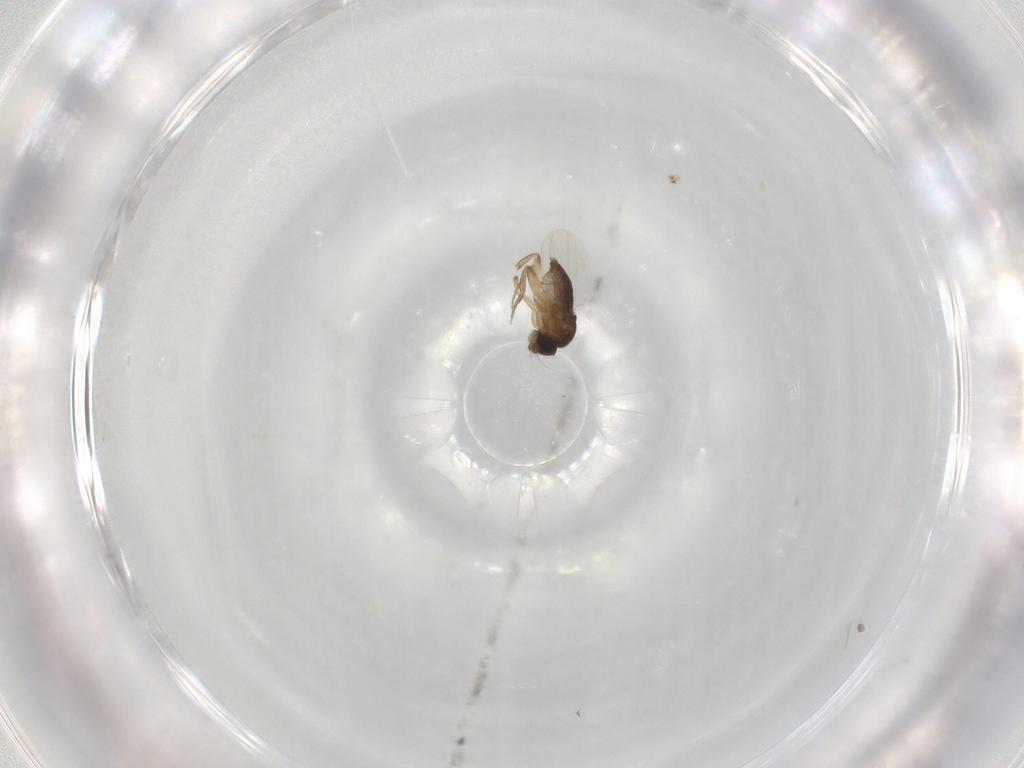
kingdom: Animalia
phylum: Arthropoda
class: Insecta
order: Diptera
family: Phoridae
